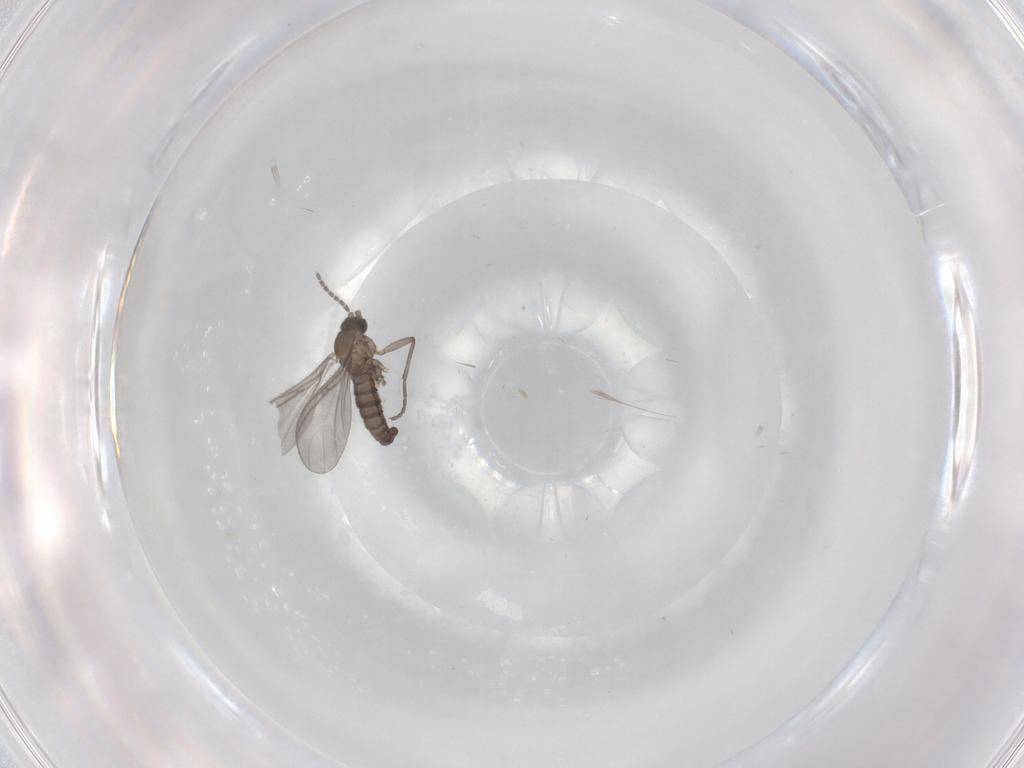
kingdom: Animalia
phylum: Arthropoda
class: Insecta
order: Diptera
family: Sciaridae
